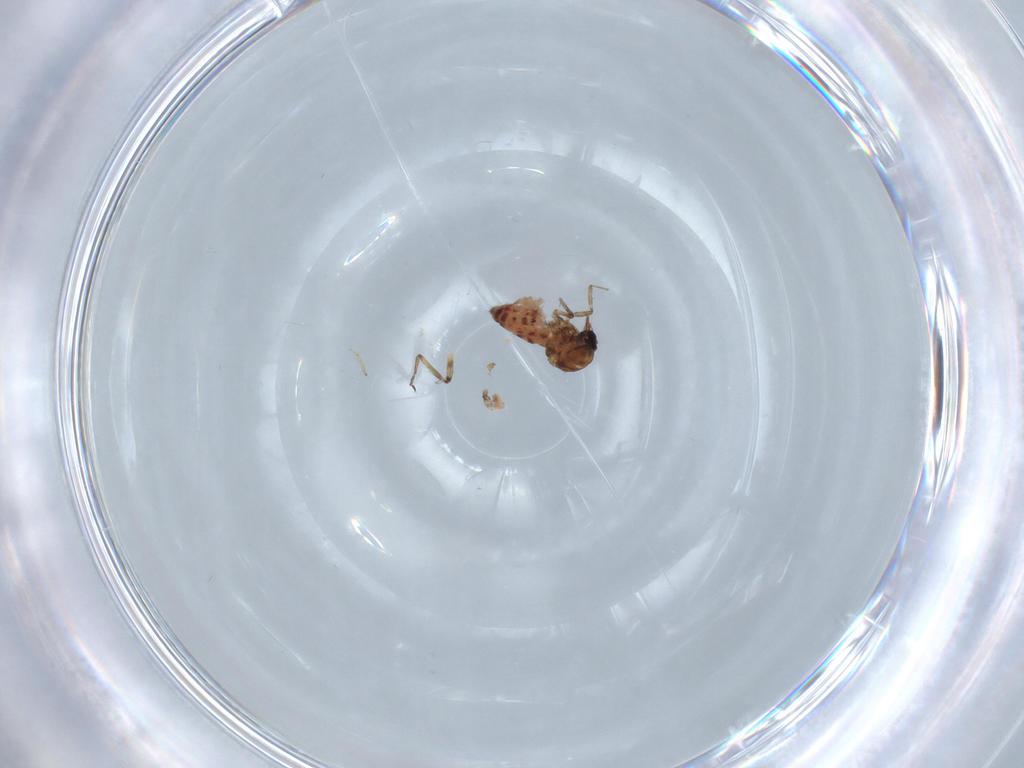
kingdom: Animalia
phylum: Arthropoda
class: Insecta
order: Diptera
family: Ceratopogonidae
